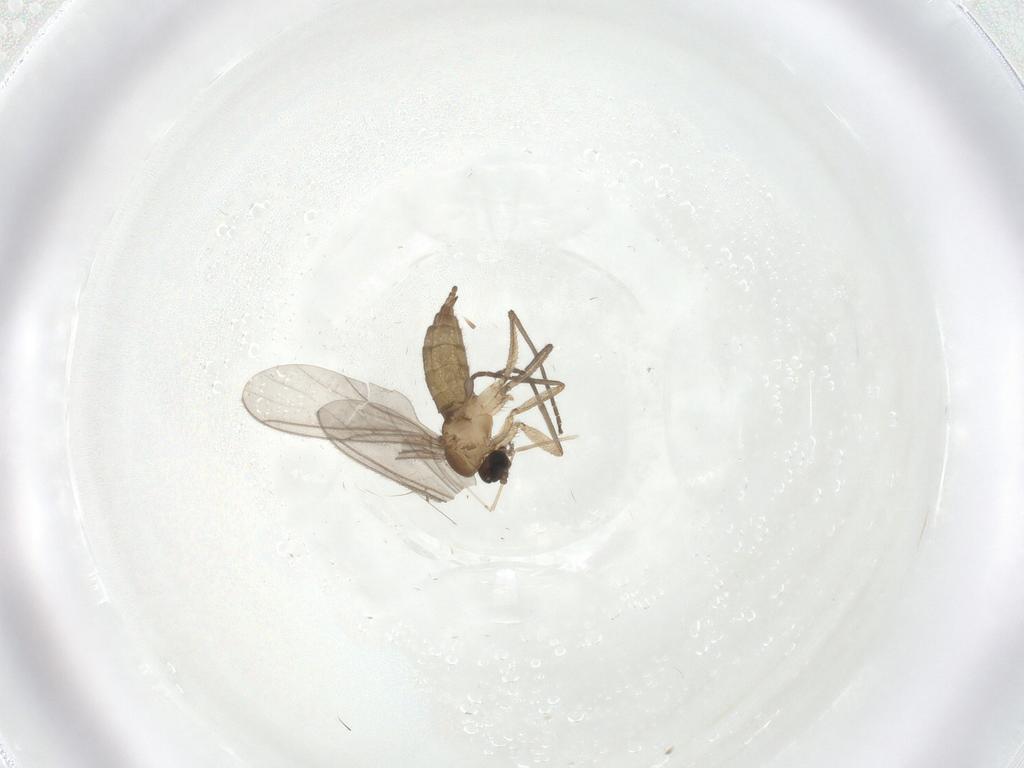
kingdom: Animalia
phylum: Arthropoda
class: Insecta
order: Diptera
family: Sciaridae
